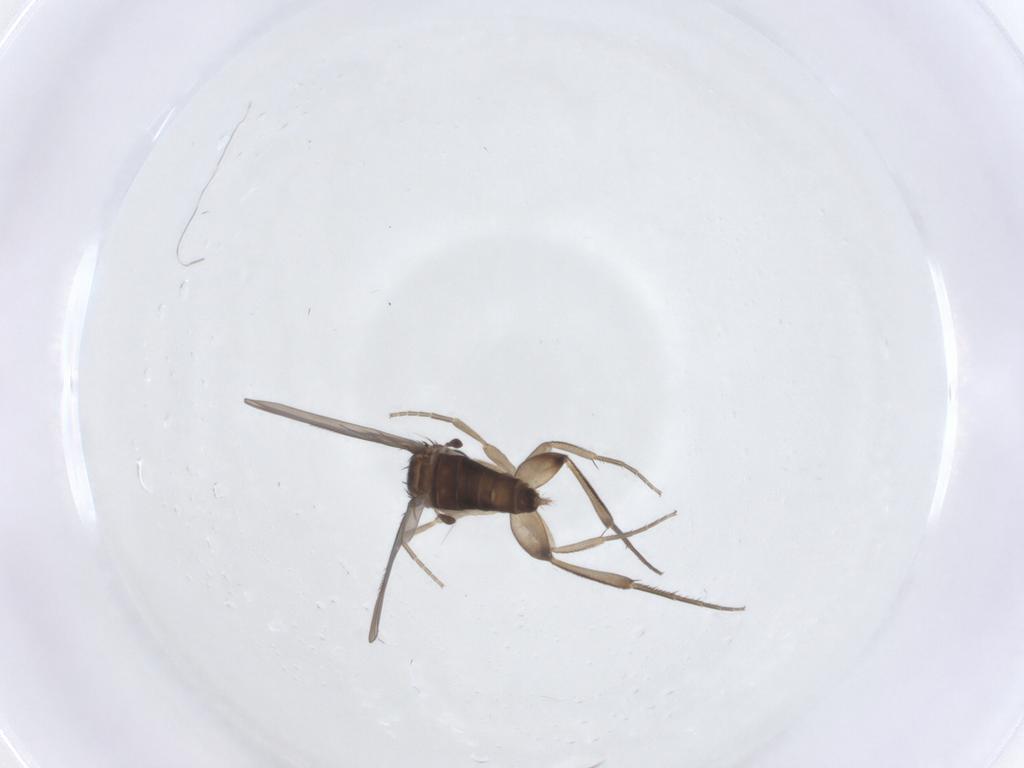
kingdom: Animalia
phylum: Arthropoda
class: Insecta
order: Diptera
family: Phoridae
